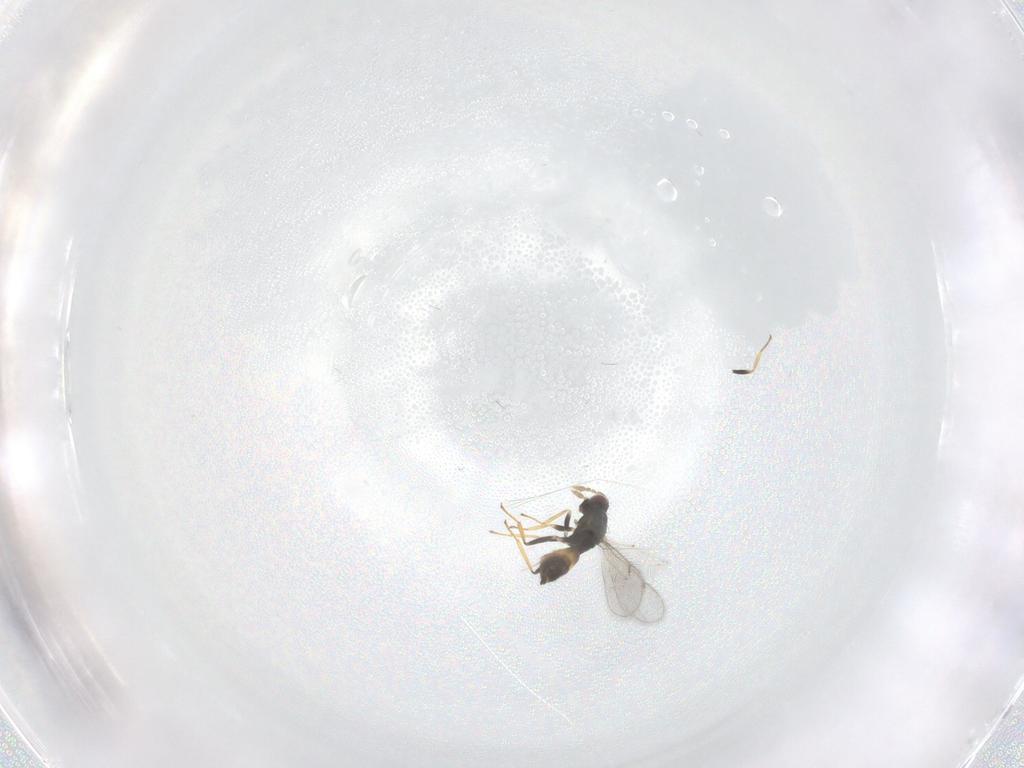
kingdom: Animalia
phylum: Arthropoda
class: Insecta
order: Hymenoptera
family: Eulophidae
